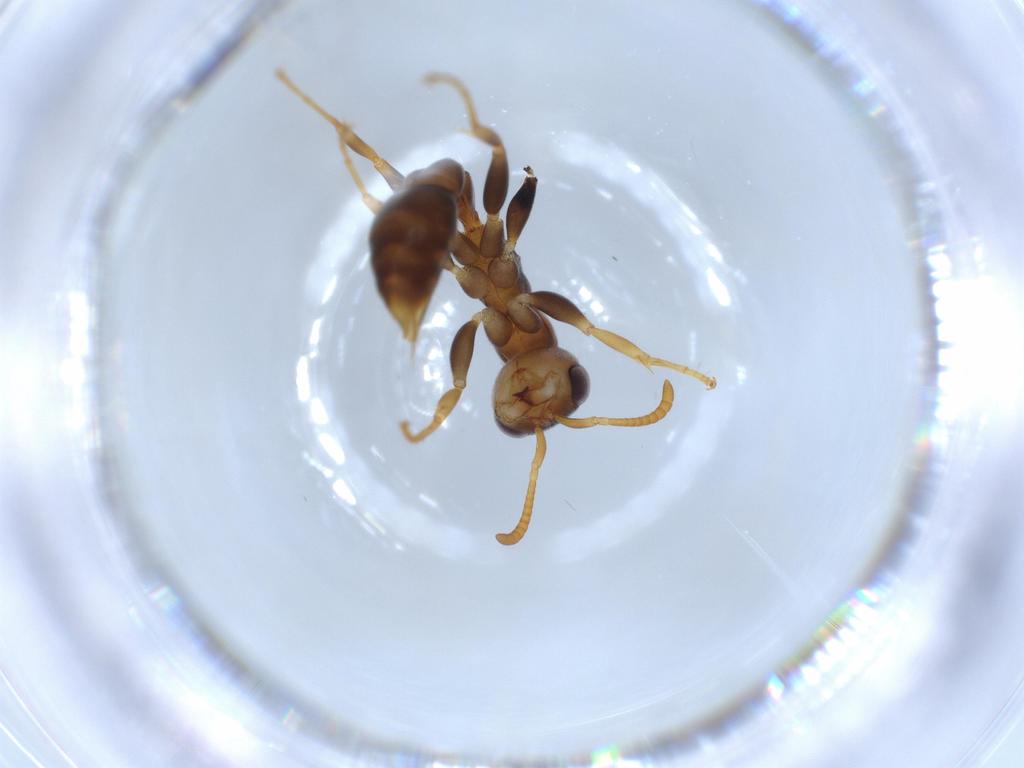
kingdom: Animalia
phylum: Arthropoda
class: Insecta
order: Hymenoptera
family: Formicidae
